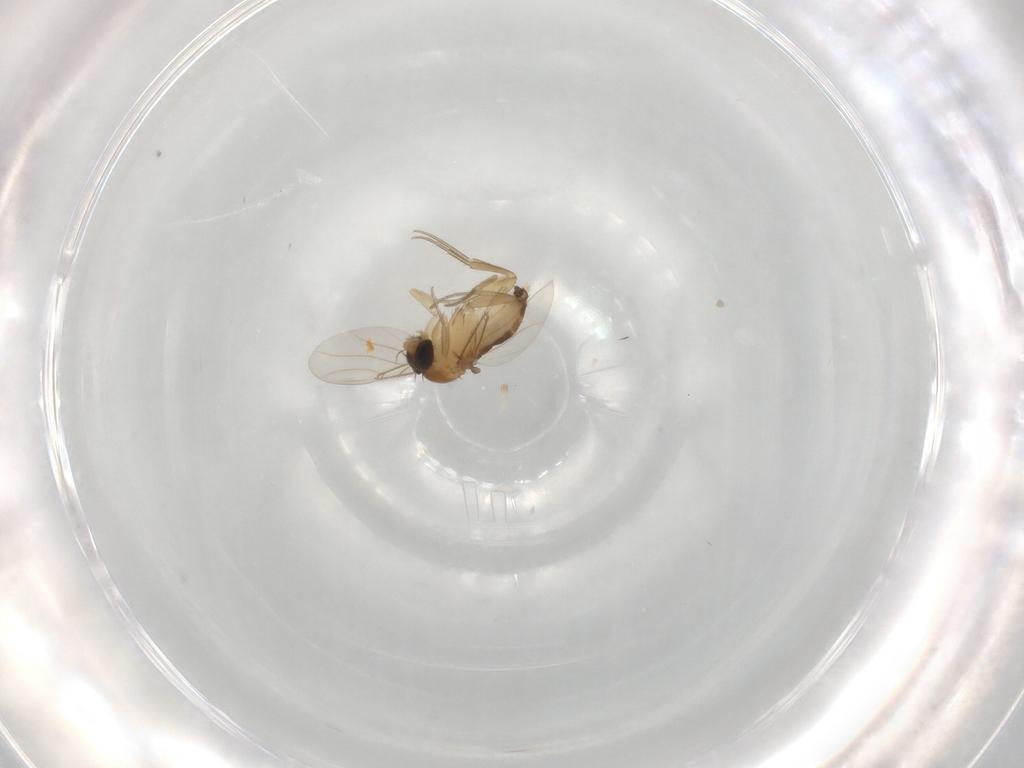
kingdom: Animalia
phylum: Arthropoda
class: Insecta
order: Diptera
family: Phoridae
